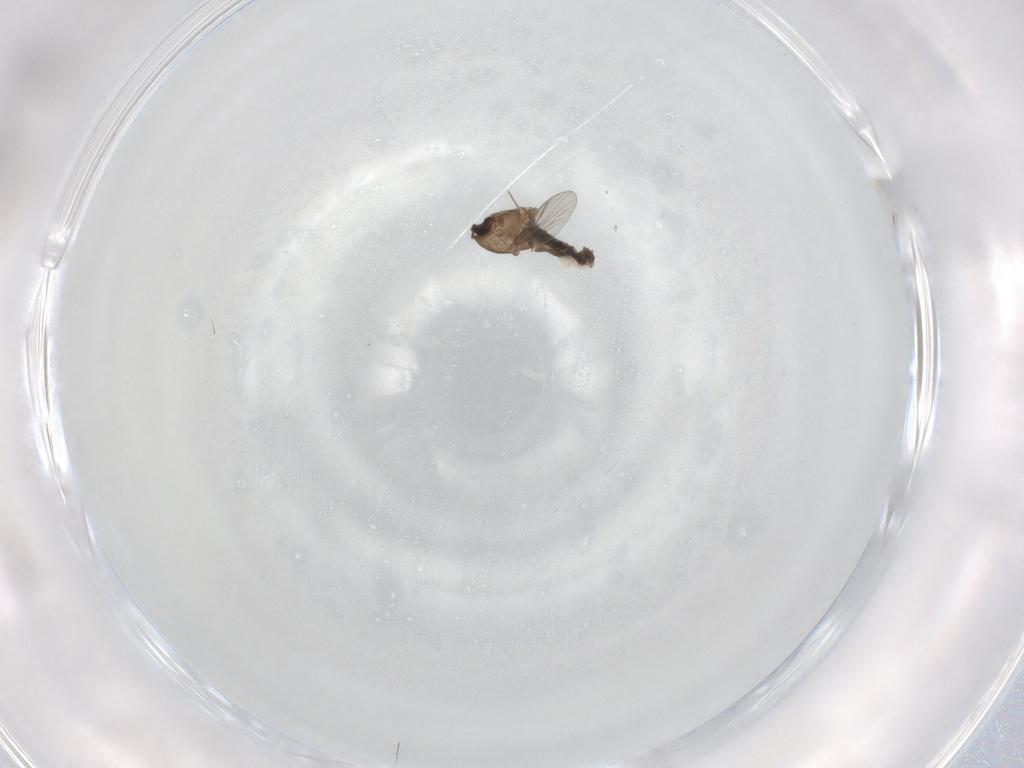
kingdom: Animalia
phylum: Arthropoda
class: Insecta
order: Diptera
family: Chironomidae
